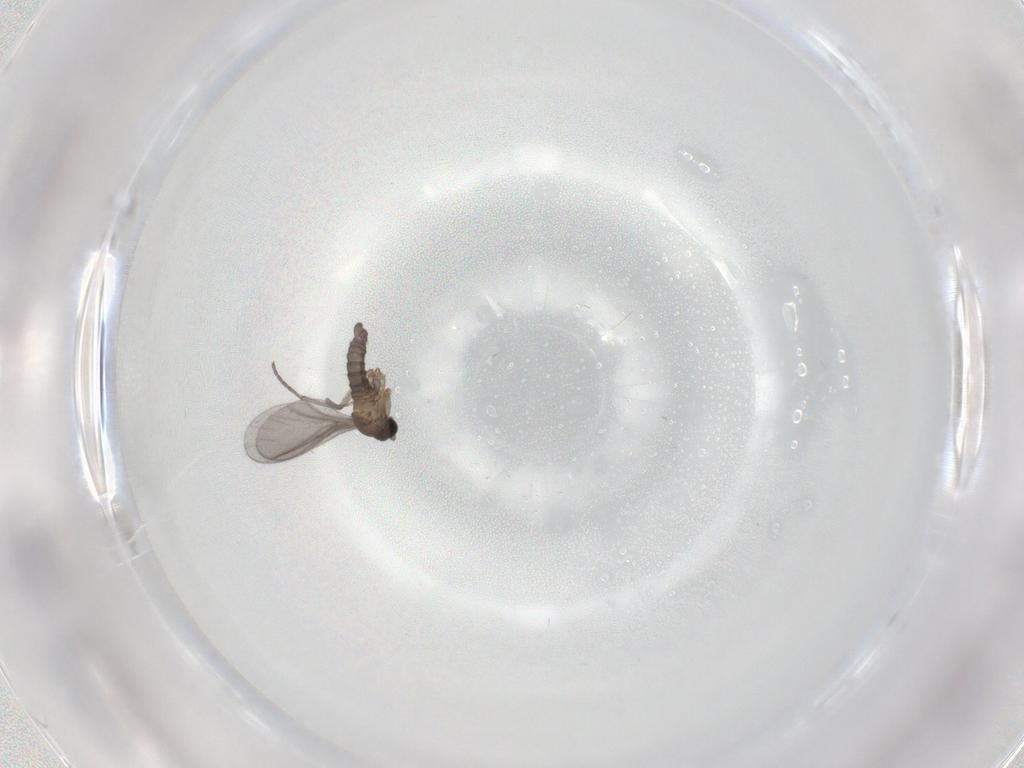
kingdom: Animalia
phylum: Arthropoda
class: Insecta
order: Diptera
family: Sciaridae
